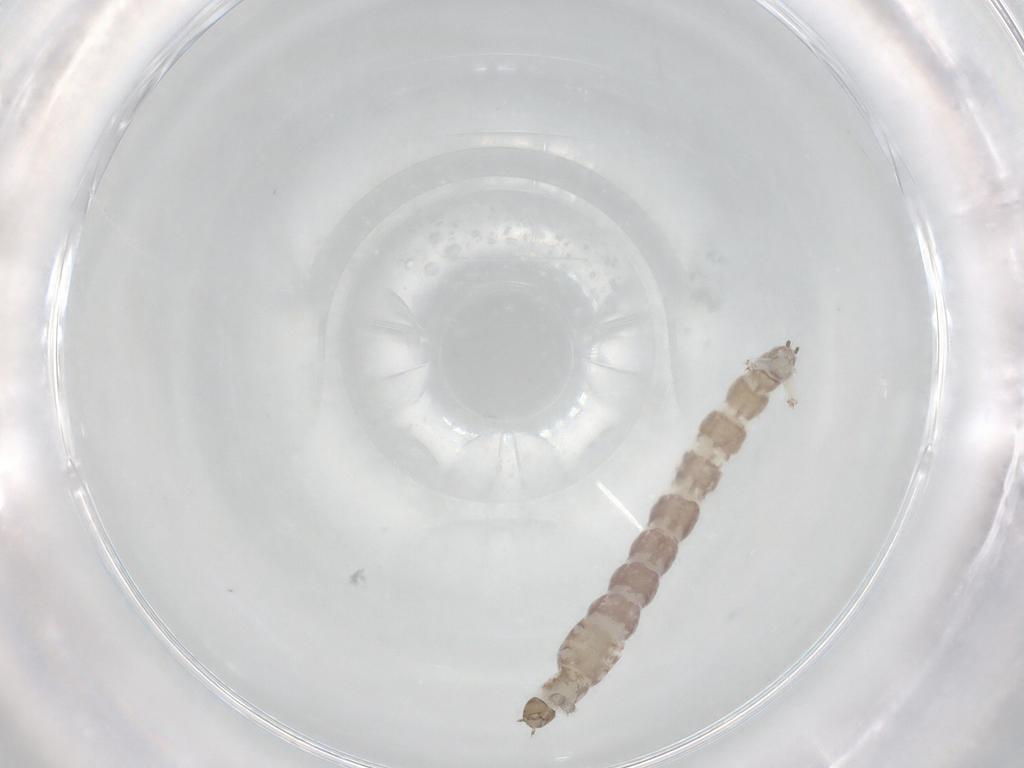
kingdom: Animalia
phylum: Arthropoda
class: Insecta
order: Diptera
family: Chironomidae
